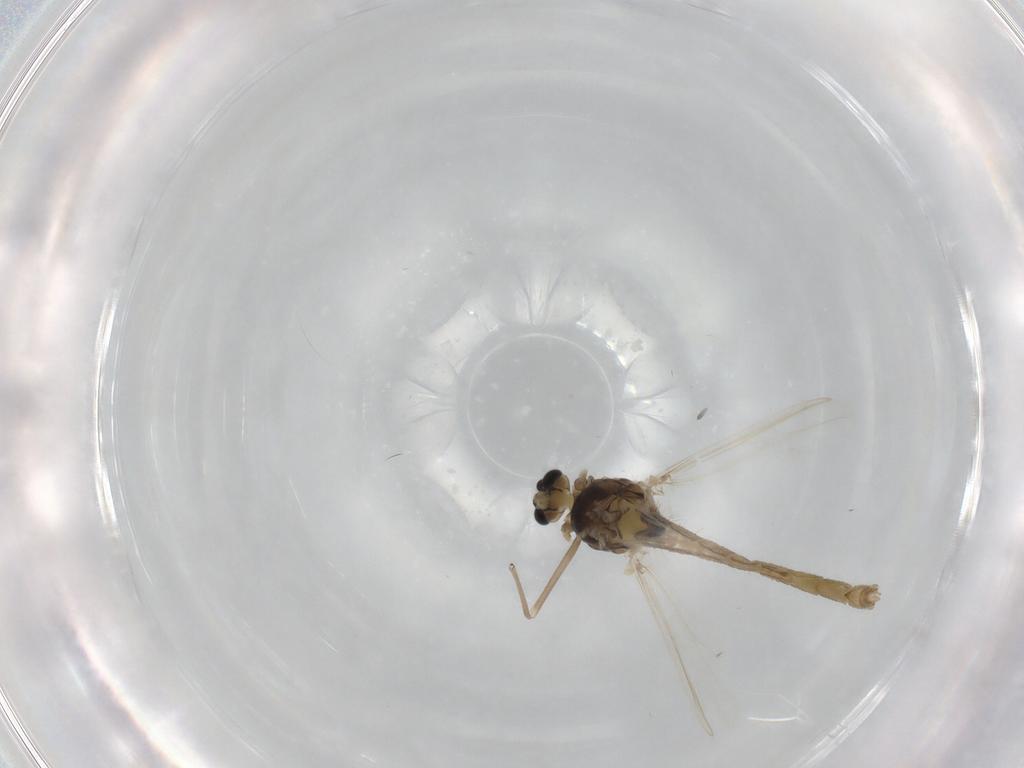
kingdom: Animalia
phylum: Arthropoda
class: Insecta
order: Diptera
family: Chironomidae
